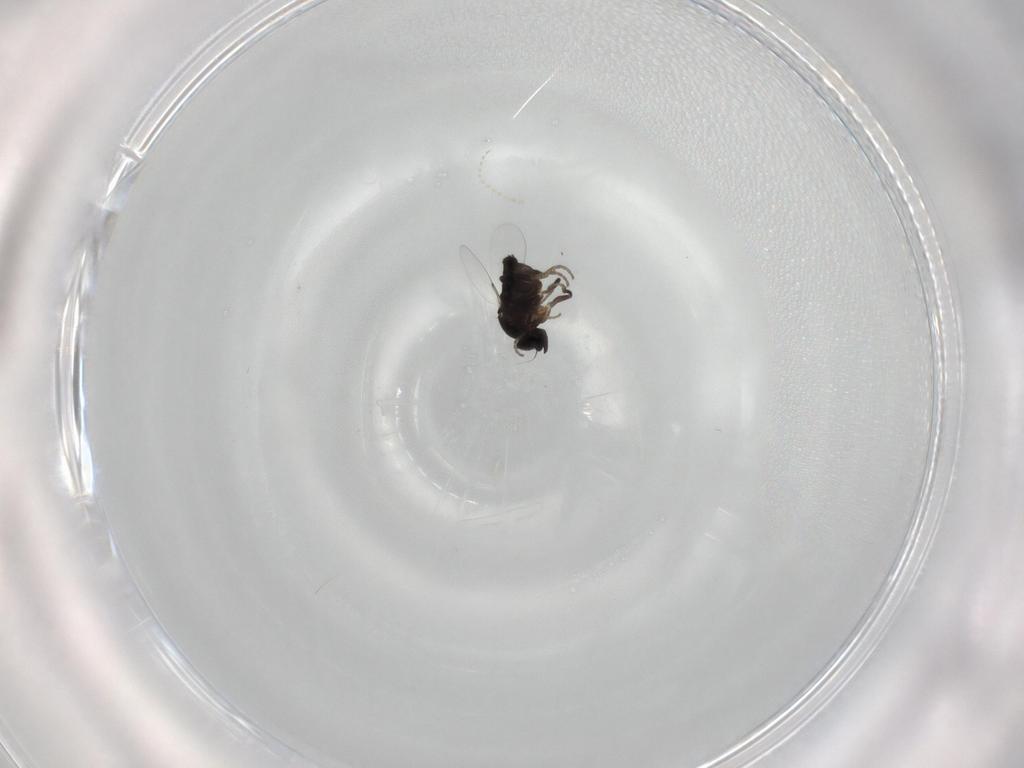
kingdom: Animalia
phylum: Arthropoda
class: Insecta
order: Diptera
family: Phoridae
